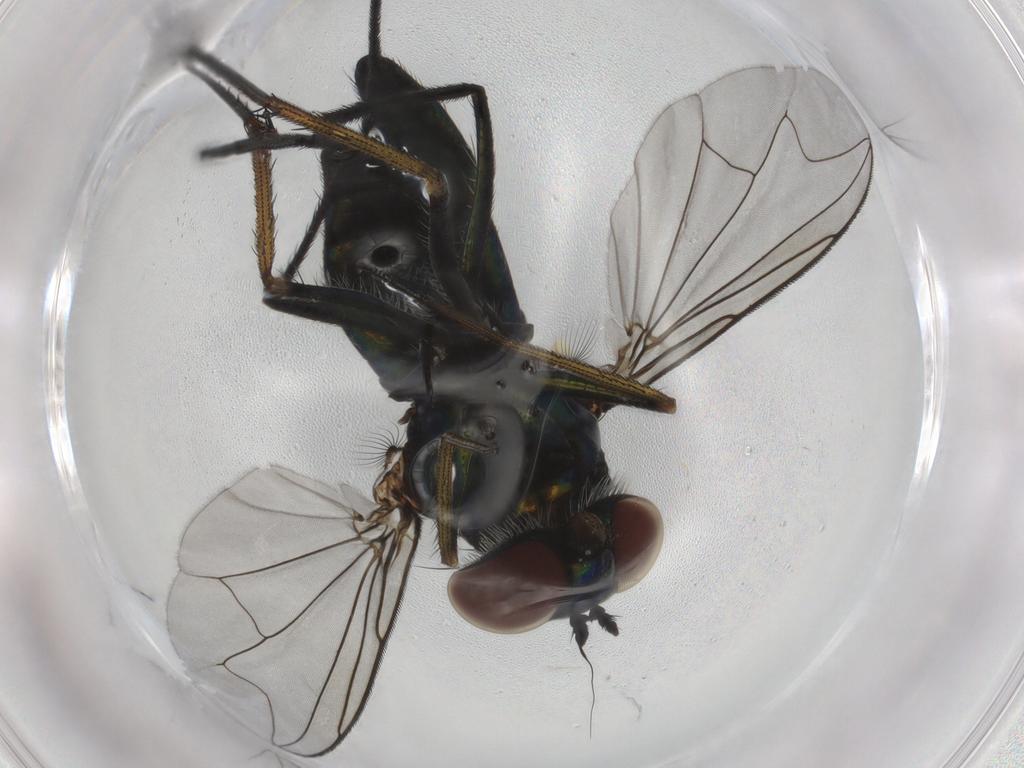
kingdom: Animalia
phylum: Arthropoda
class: Insecta
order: Diptera
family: Dolichopodidae
